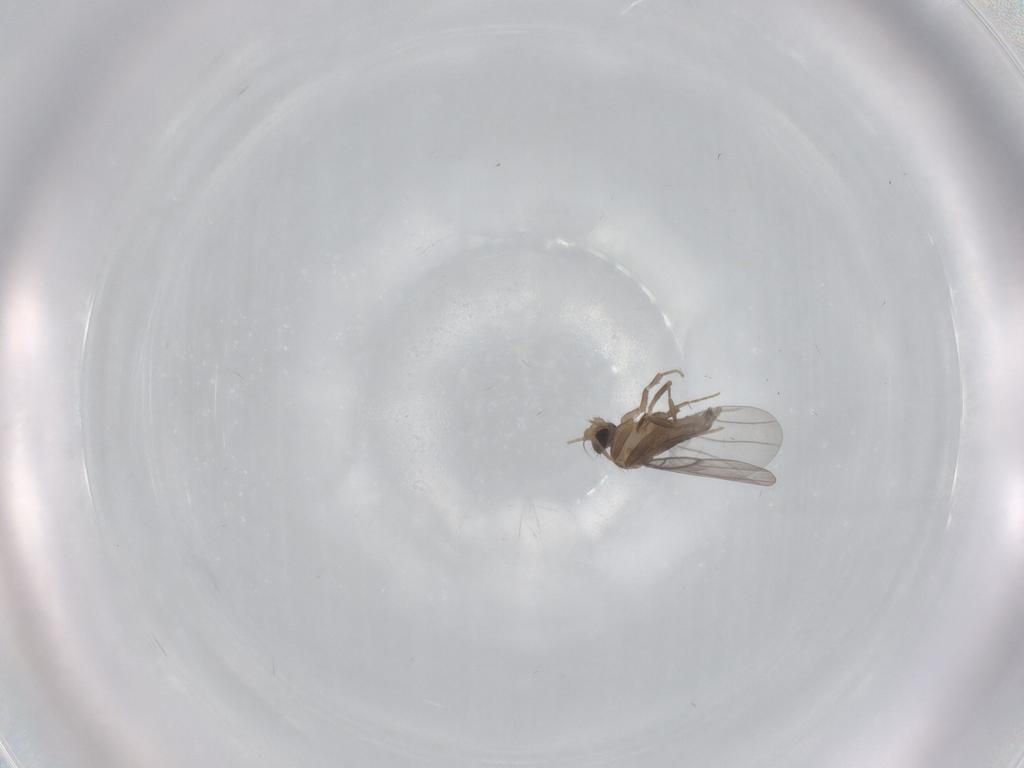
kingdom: Animalia
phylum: Arthropoda
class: Insecta
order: Diptera
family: Psychodidae
